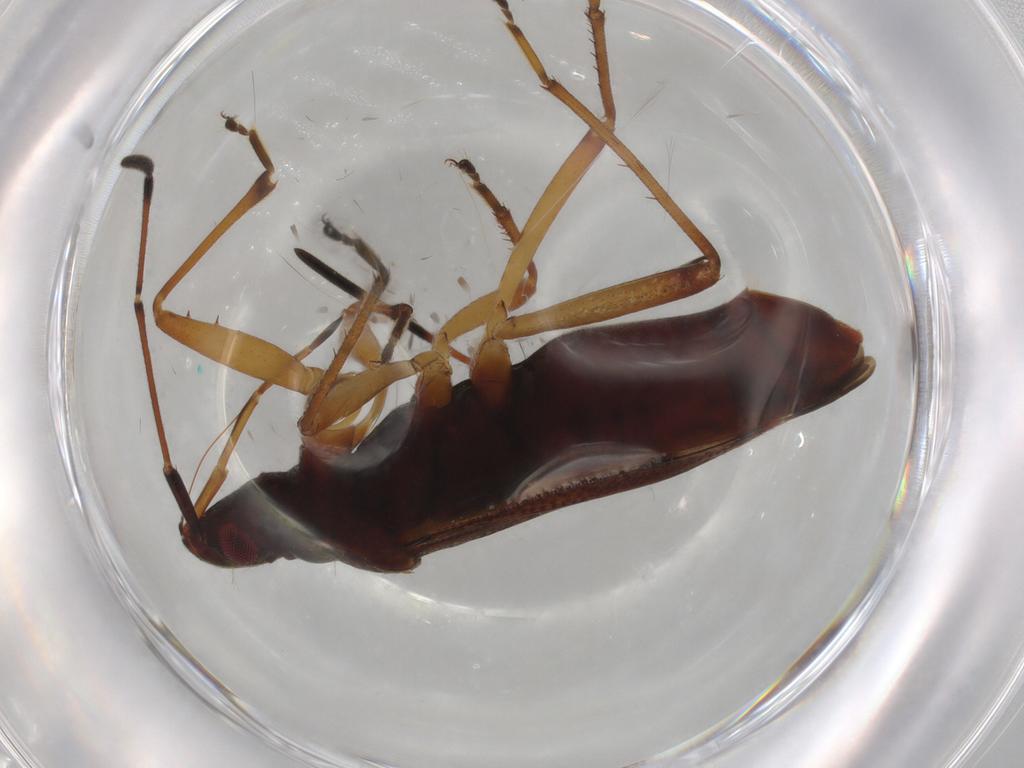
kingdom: Animalia
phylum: Arthropoda
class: Insecta
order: Hemiptera
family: Rhyparochromidae
